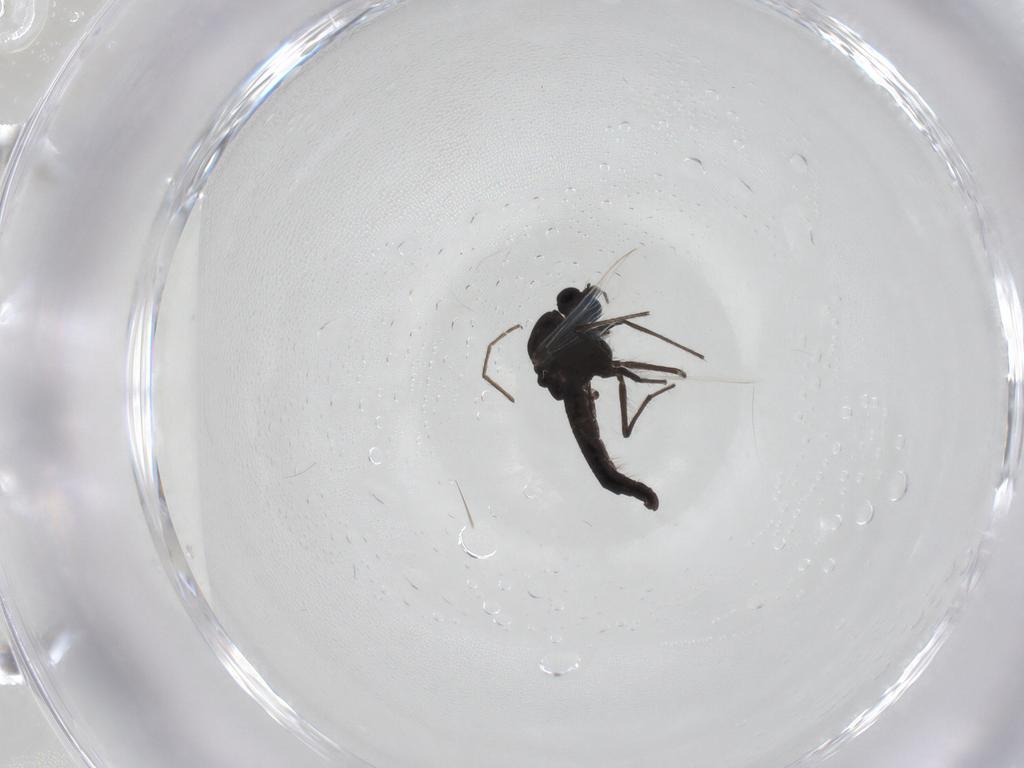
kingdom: Animalia
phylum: Arthropoda
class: Insecta
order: Diptera
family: Chironomidae
